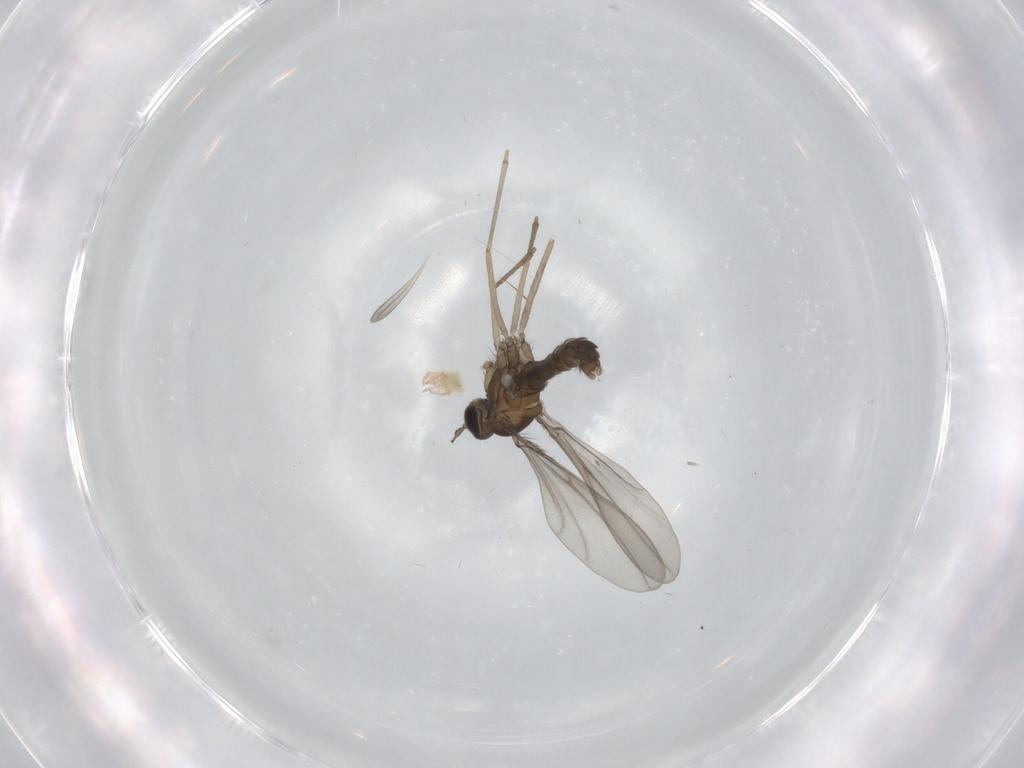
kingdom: Animalia
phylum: Arthropoda
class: Insecta
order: Diptera
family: Cecidomyiidae
